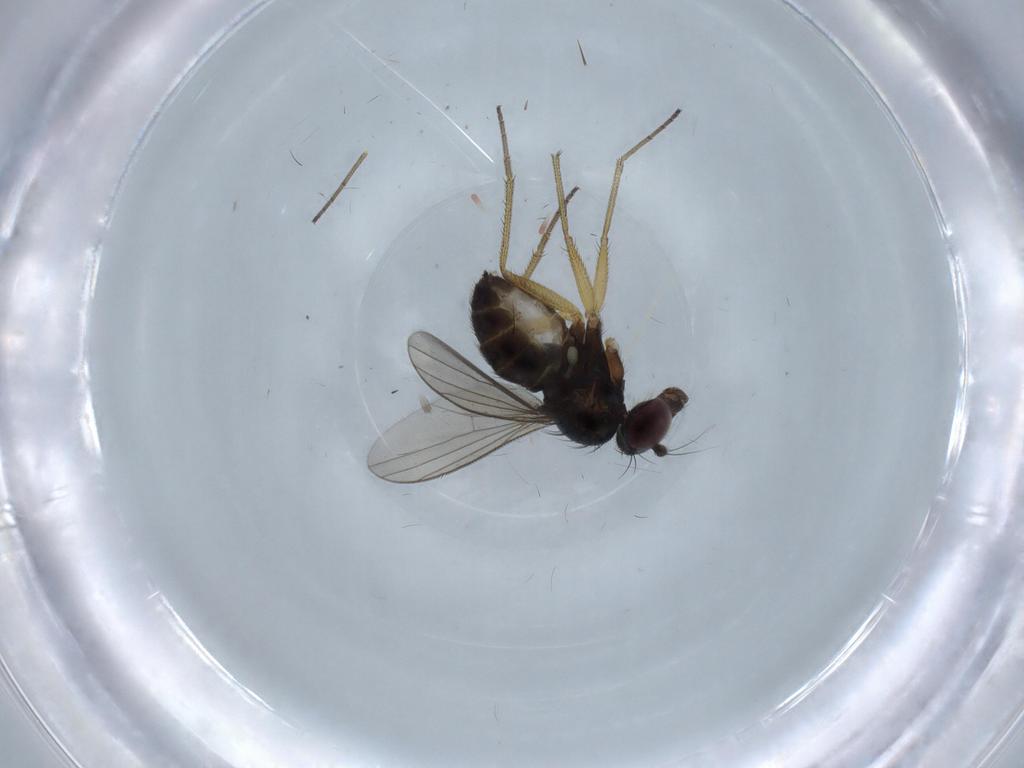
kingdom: Animalia
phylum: Arthropoda
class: Insecta
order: Diptera
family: Dolichopodidae
